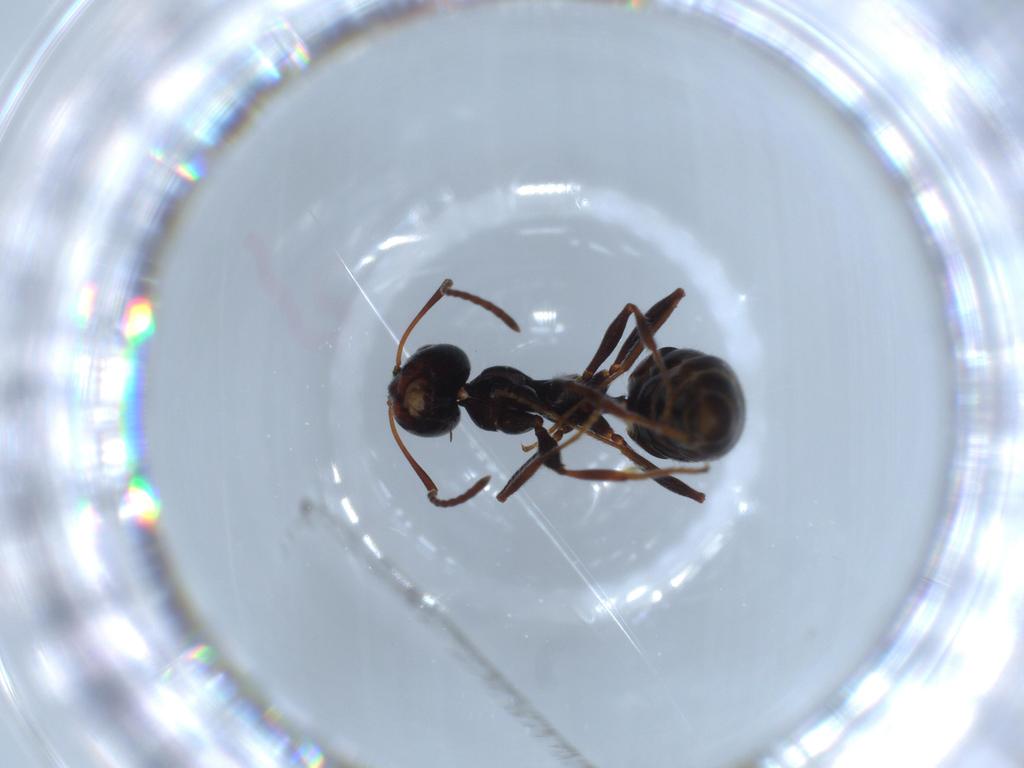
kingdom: Animalia
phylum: Arthropoda
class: Insecta
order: Hymenoptera
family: Formicidae
